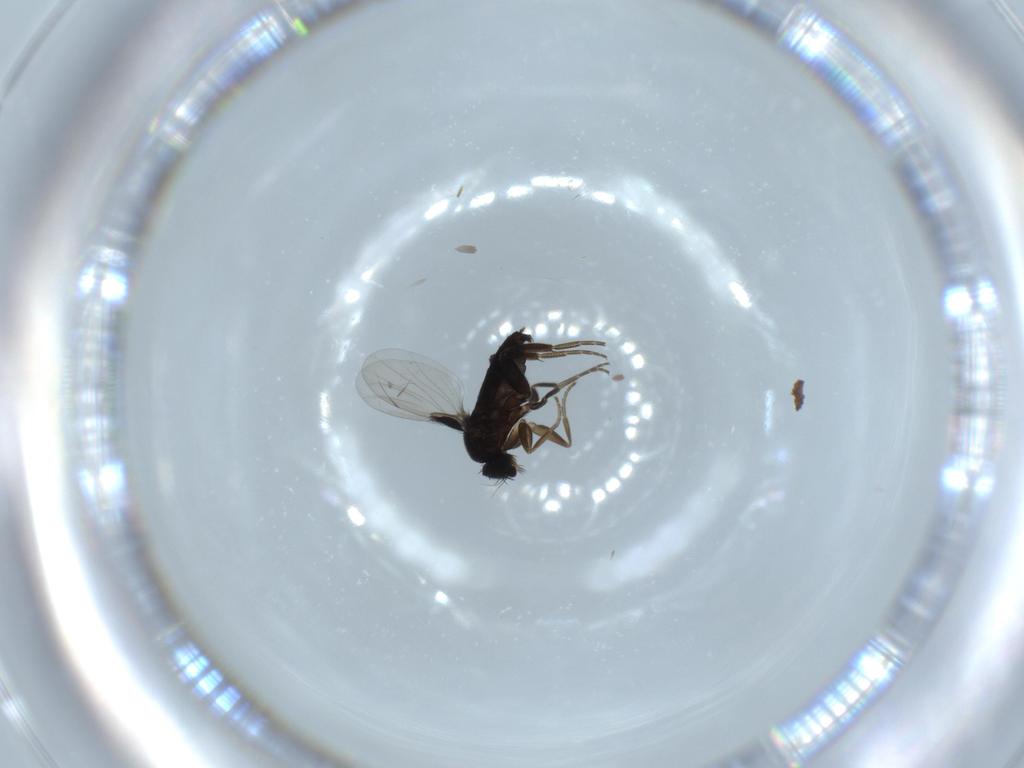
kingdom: Animalia
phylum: Arthropoda
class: Insecta
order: Diptera
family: Phoridae
